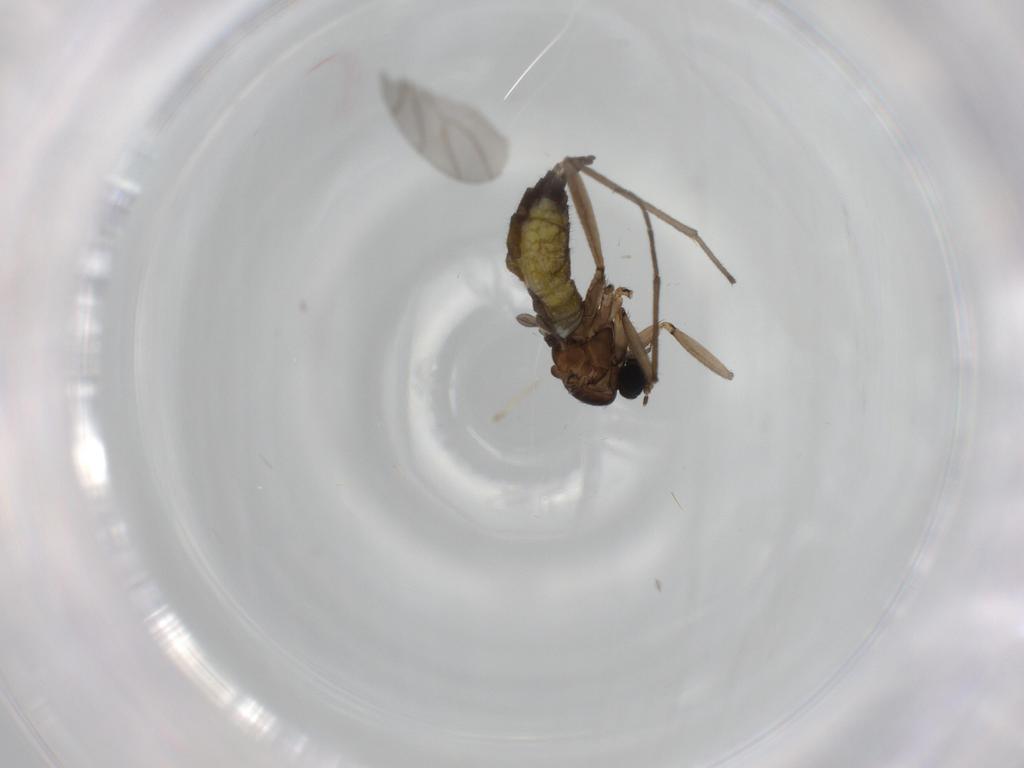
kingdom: Animalia
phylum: Arthropoda
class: Insecta
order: Diptera
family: Sciaridae
